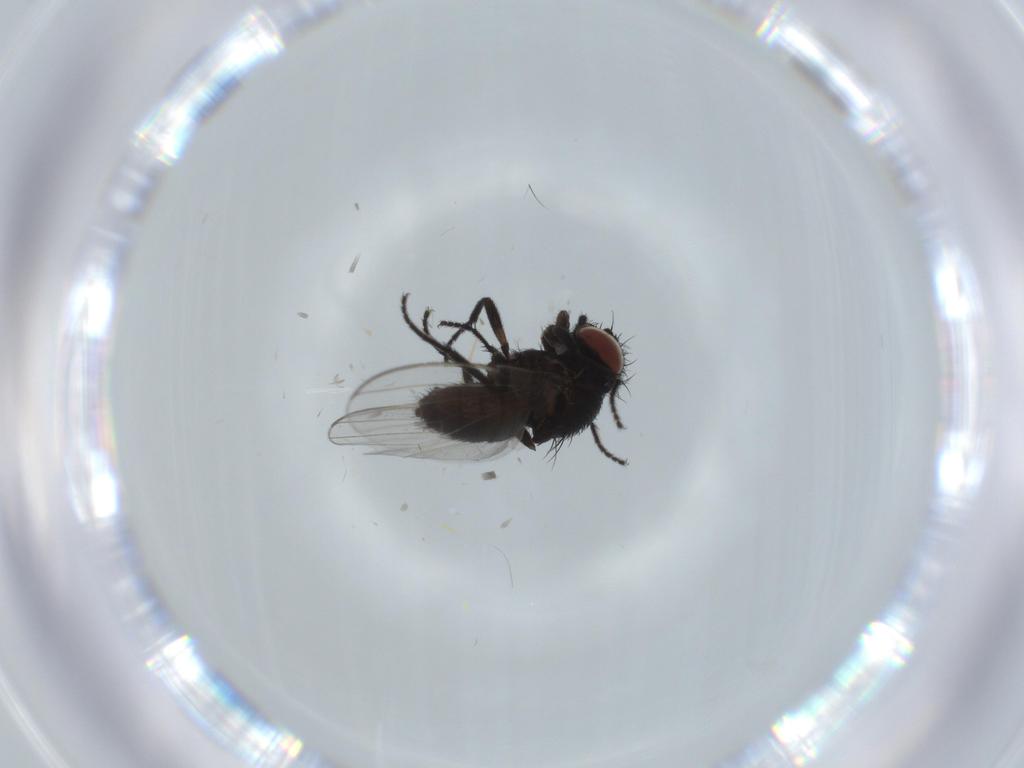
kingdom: Animalia
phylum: Arthropoda
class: Insecta
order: Diptera
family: Milichiidae
